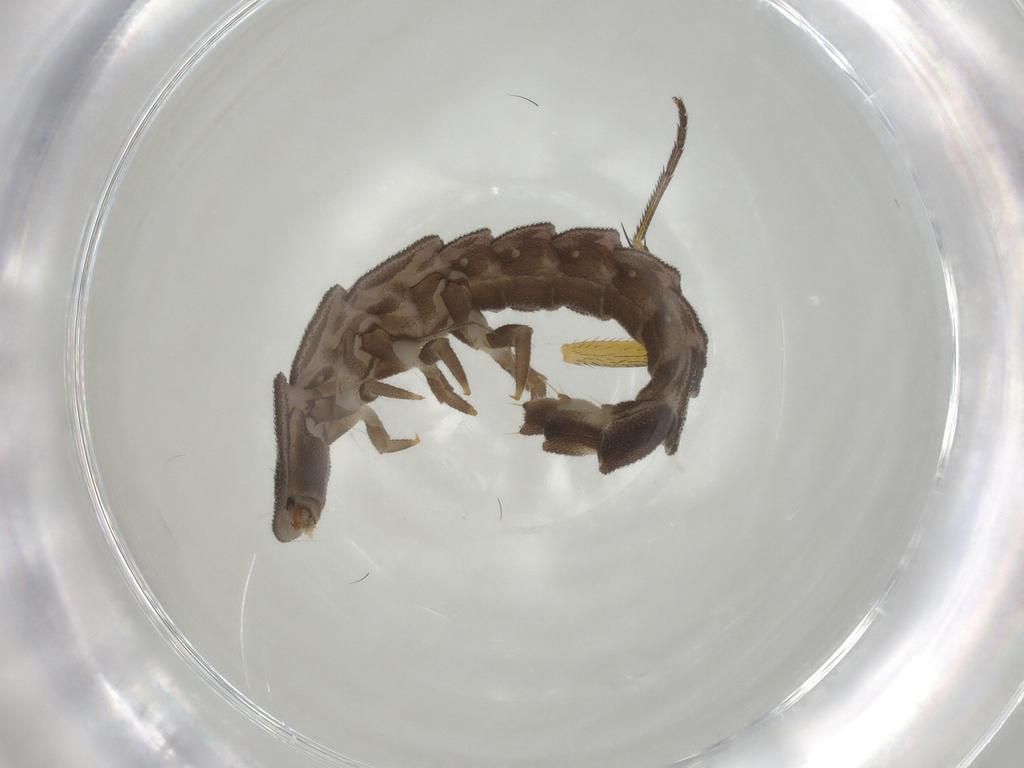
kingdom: Animalia
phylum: Arthropoda
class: Insecta
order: Coleoptera
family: Lampyridae
